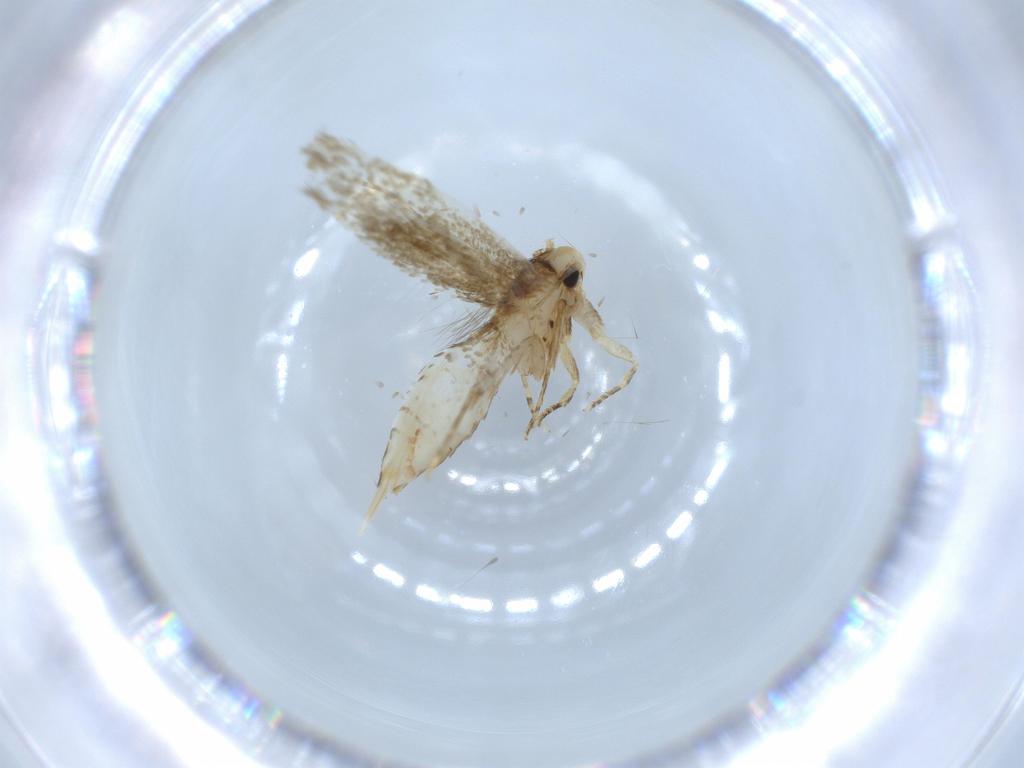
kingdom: Animalia
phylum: Arthropoda
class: Insecta
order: Lepidoptera
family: Tineidae
